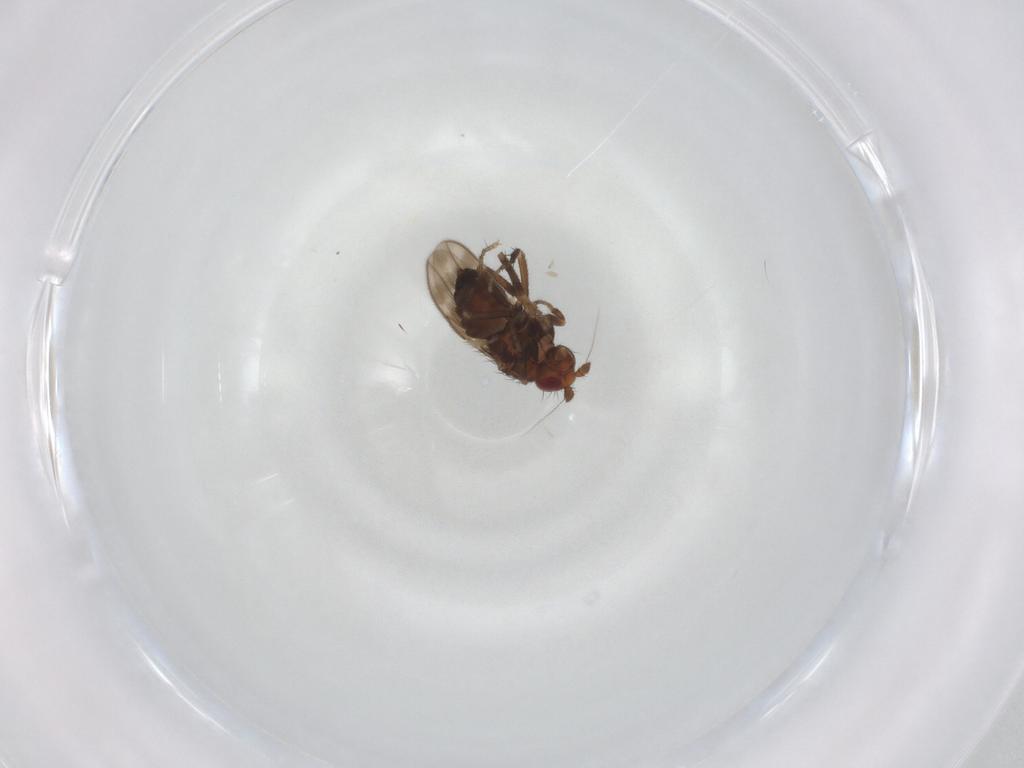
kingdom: Animalia
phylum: Arthropoda
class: Insecta
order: Diptera
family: Sphaeroceridae
